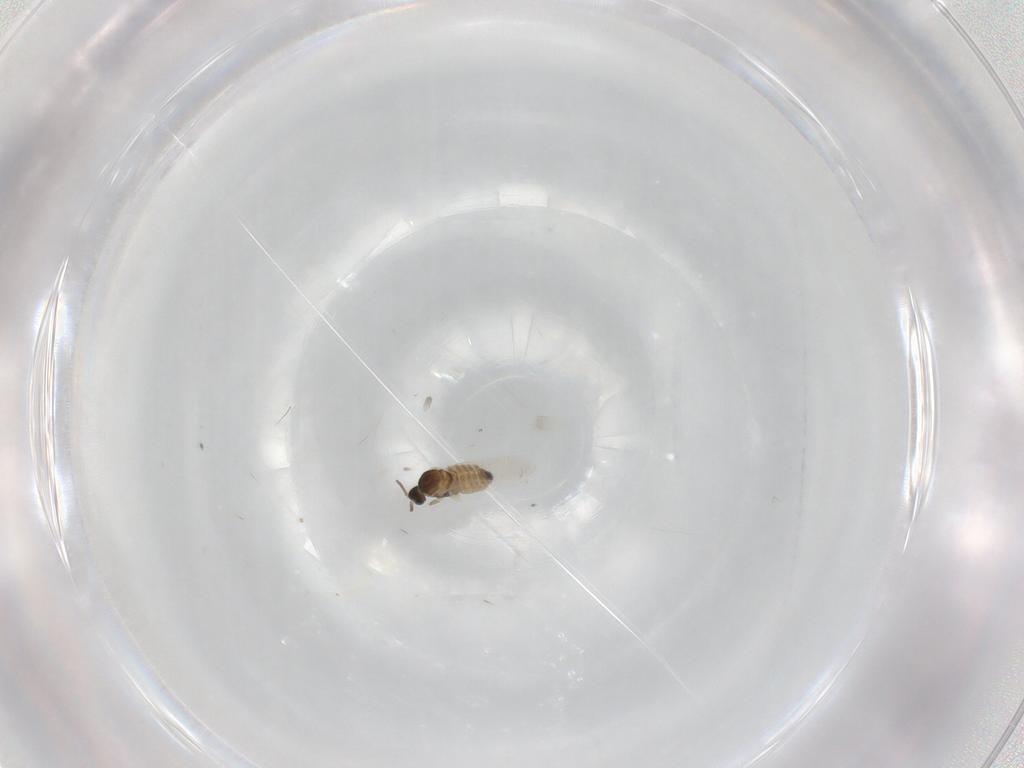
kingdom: Animalia
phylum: Arthropoda
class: Insecta
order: Diptera
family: Cecidomyiidae
